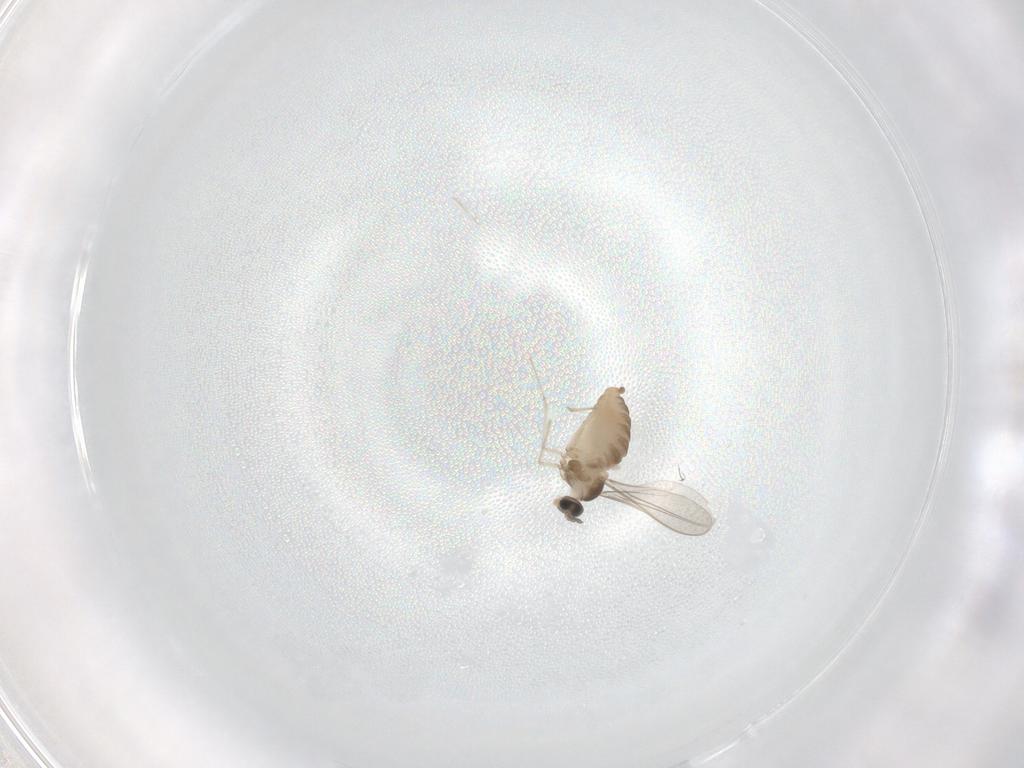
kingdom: Animalia
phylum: Arthropoda
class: Insecta
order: Diptera
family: Cecidomyiidae
